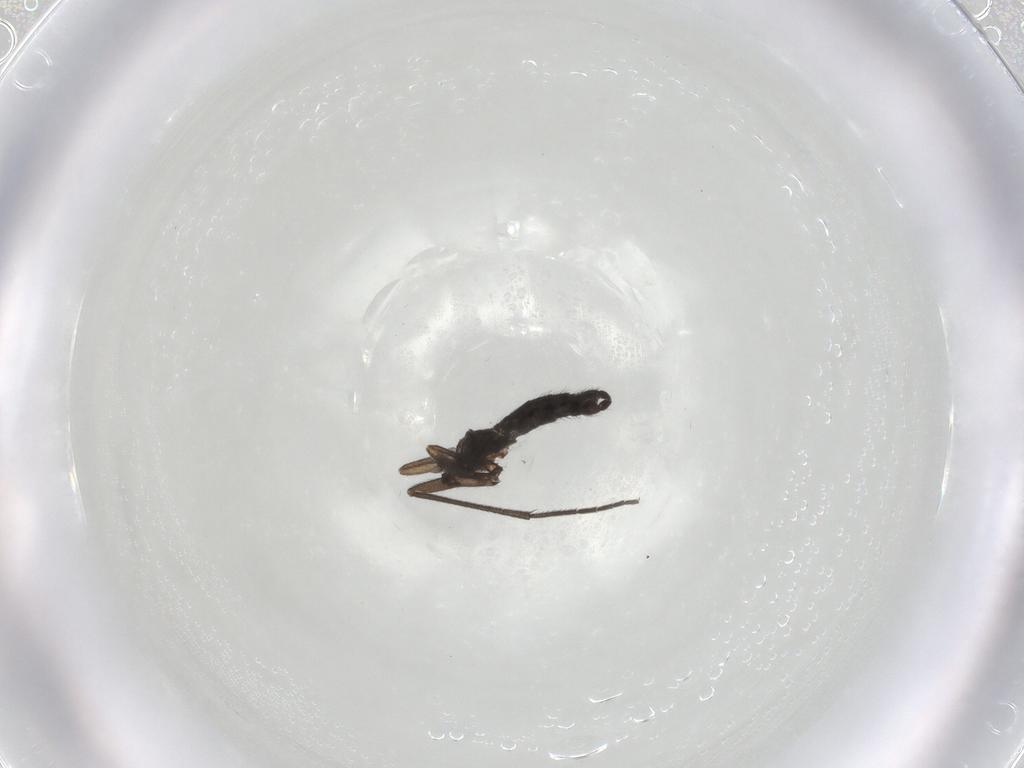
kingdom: Animalia
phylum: Arthropoda
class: Insecta
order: Diptera
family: Sciaridae
